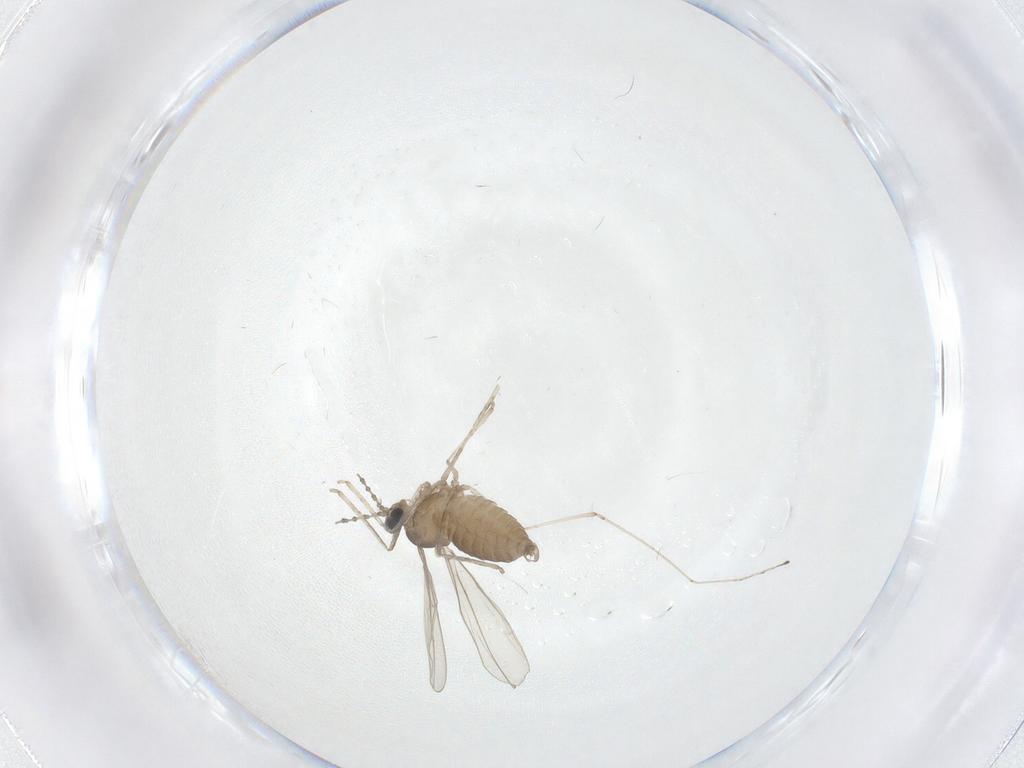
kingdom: Animalia
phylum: Arthropoda
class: Insecta
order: Diptera
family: Cecidomyiidae
